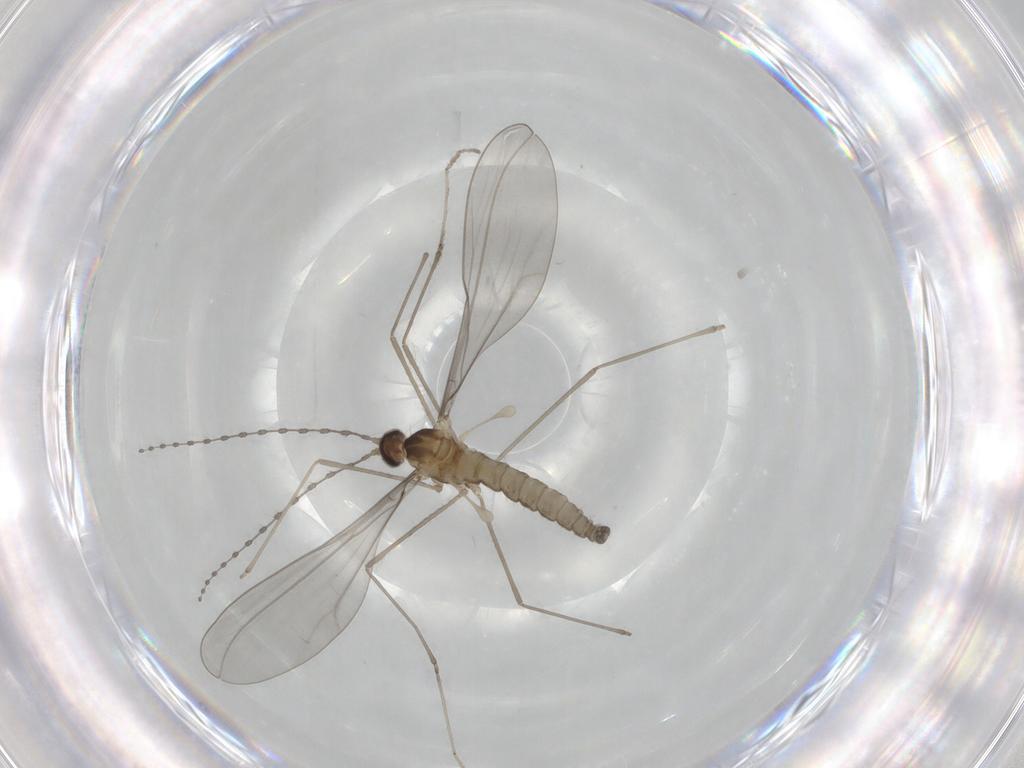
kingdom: Animalia
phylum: Arthropoda
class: Insecta
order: Diptera
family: Cecidomyiidae
